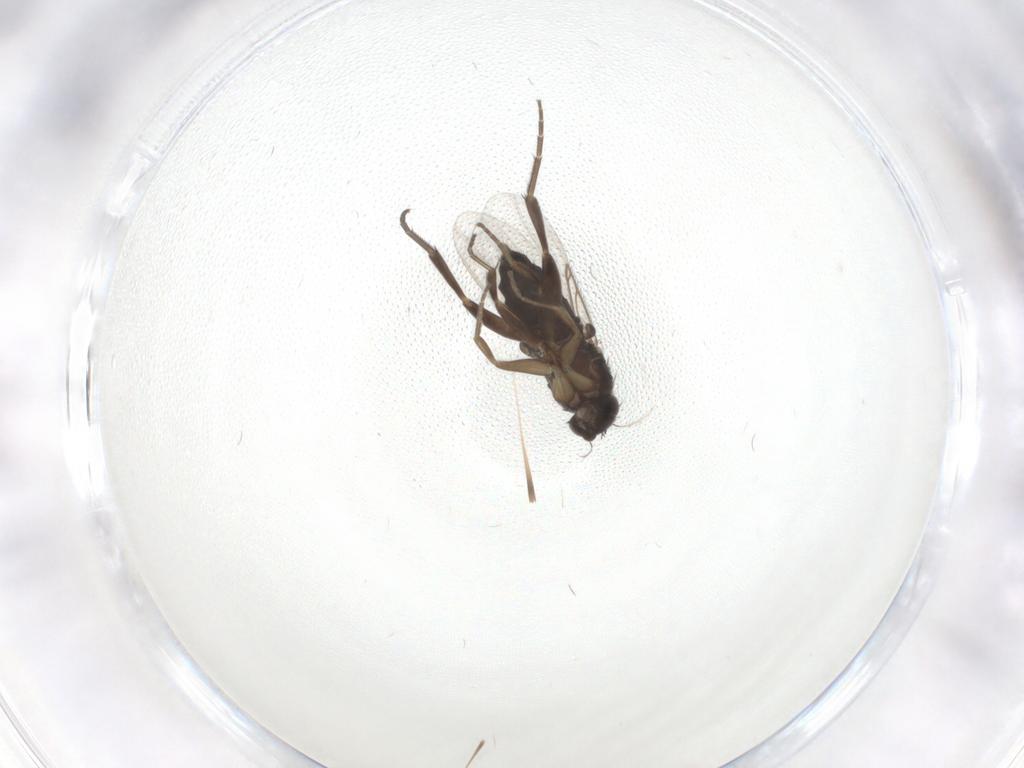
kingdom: Animalia
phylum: Arthropoda
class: Insecta
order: Diptera
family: Phoridae
